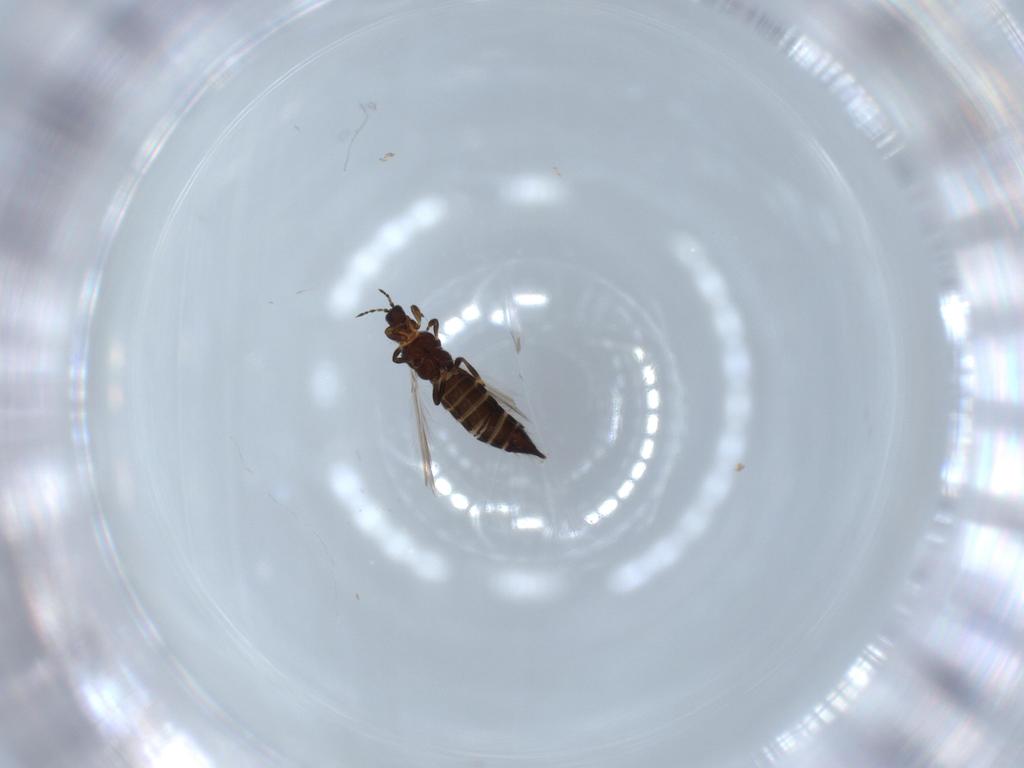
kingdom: Animalia
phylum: Arthropoda
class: Insecta
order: Thysanoptera
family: Thripidae
